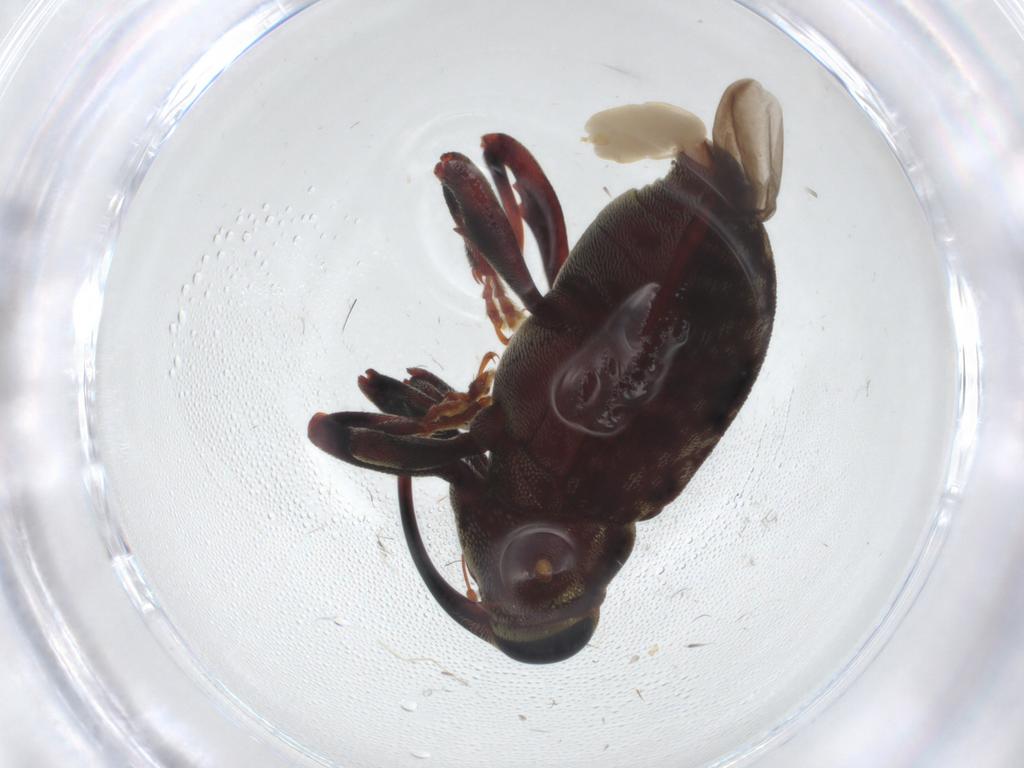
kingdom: Animalia
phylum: Arthropoda
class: Insecta
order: Coleoptera
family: Curculionidae
